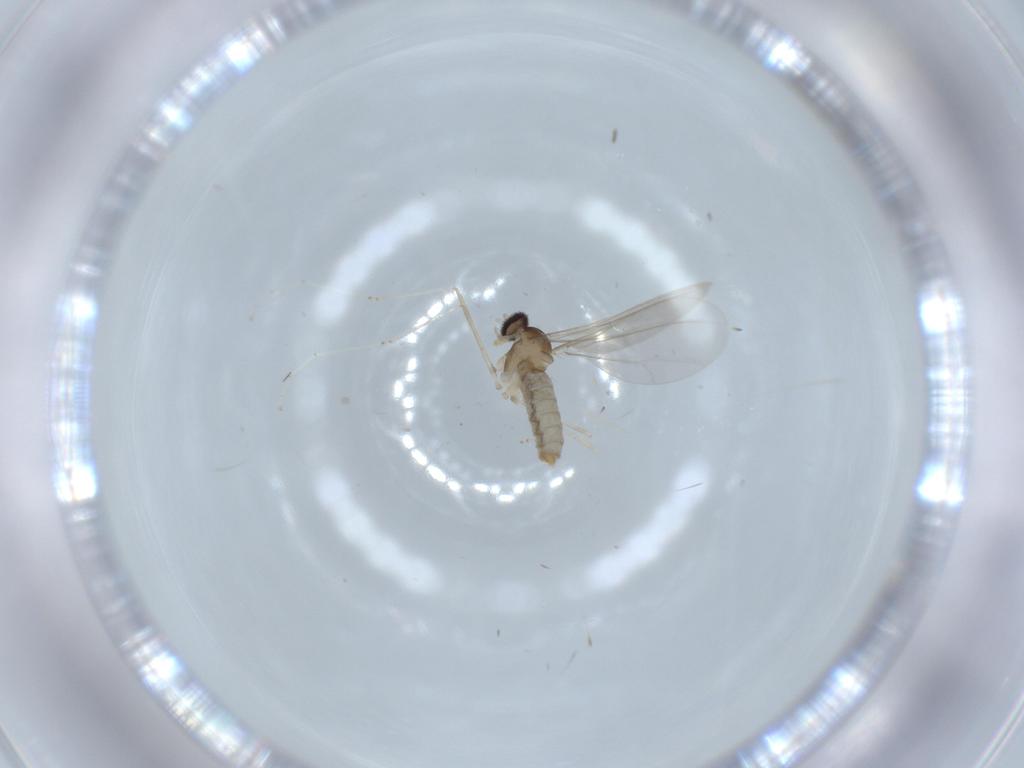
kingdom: Animalia
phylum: Arthropoda
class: Insecta
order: Diptera
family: Cecidomyiidae
